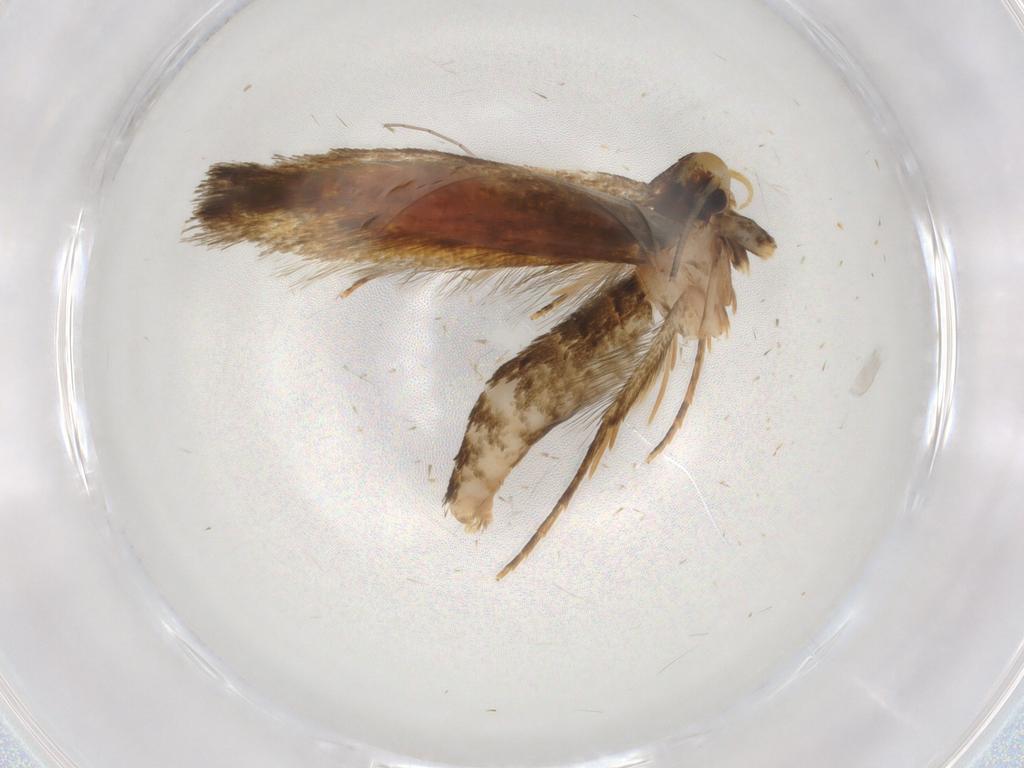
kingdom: Animalia
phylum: Arthropoda
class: Insecta
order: Lepidoptera
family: Tineidae
